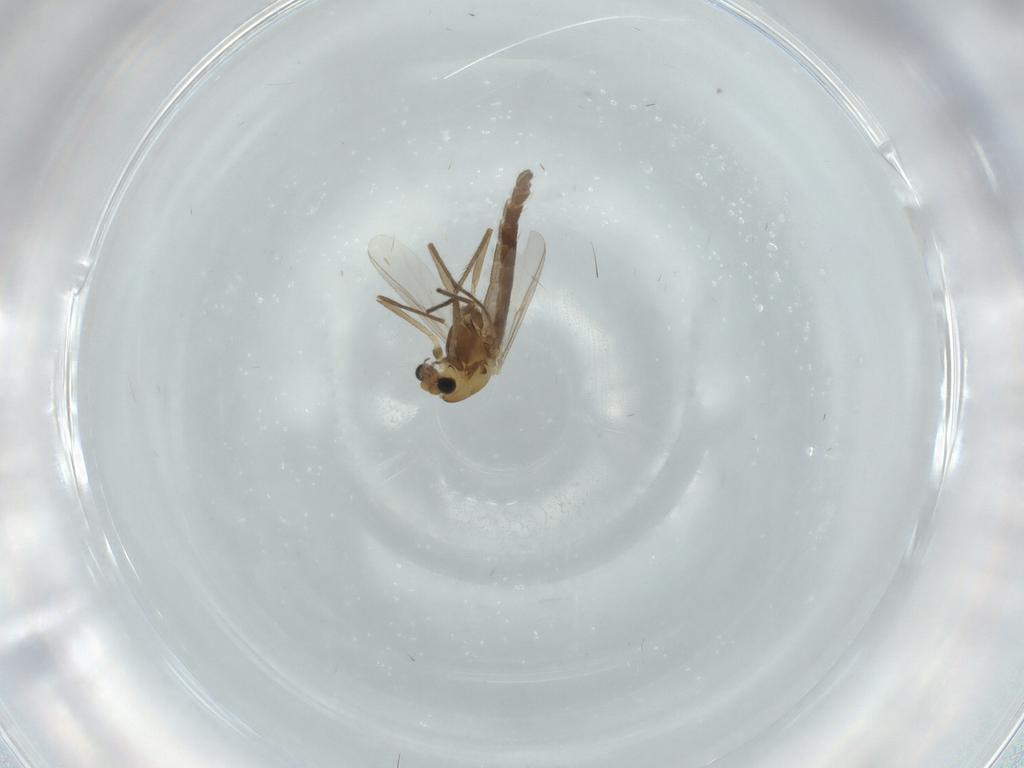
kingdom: Animalia
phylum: Arthropoda
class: Insecta
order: Diptera
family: Chironomidae
